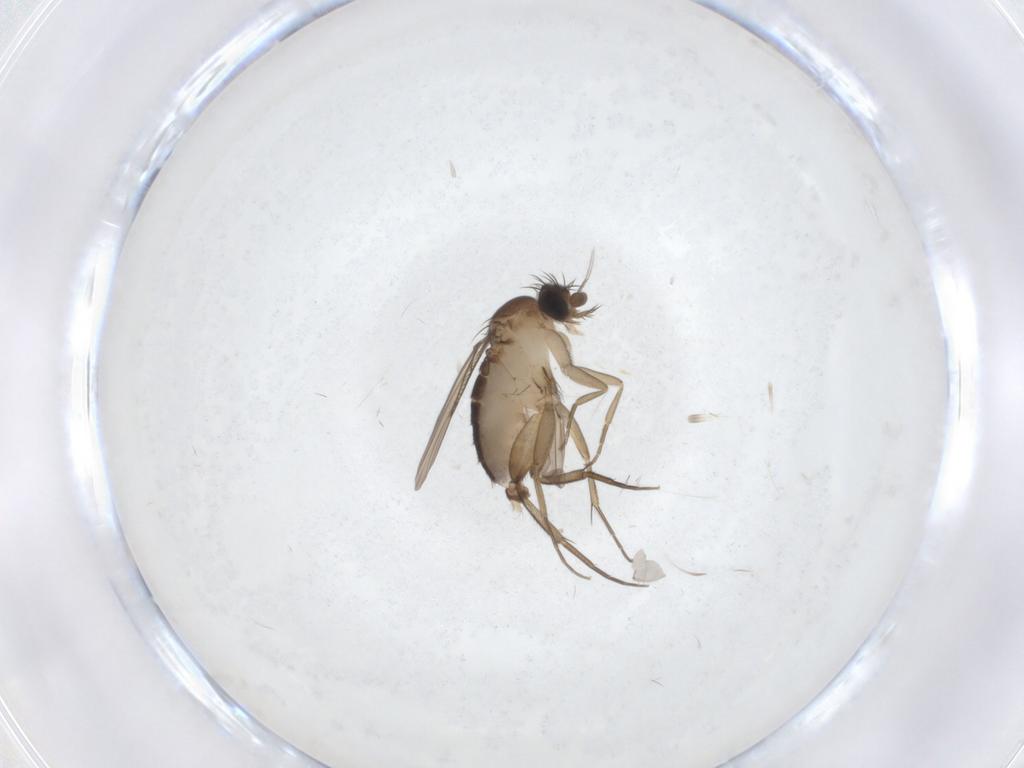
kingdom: Animalia
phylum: Arthropoda
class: Insecta
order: Diptera
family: Phoridae
